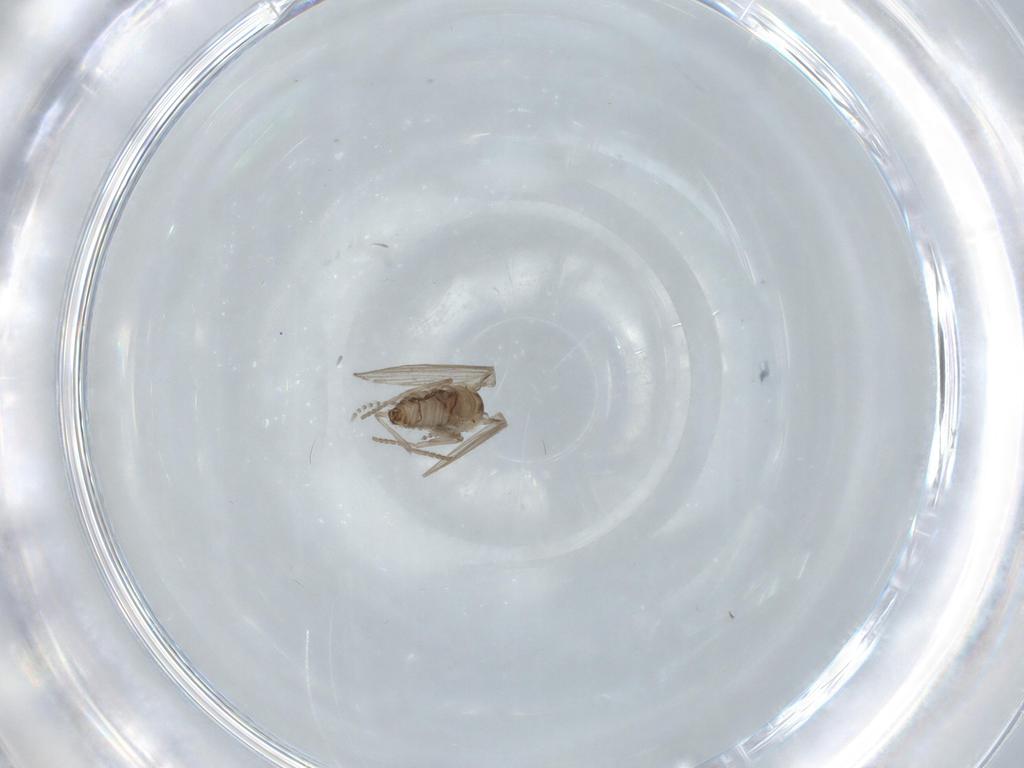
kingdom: Animalia
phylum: Arthropoda
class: Insecta
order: Diptera
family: Psychodidae
